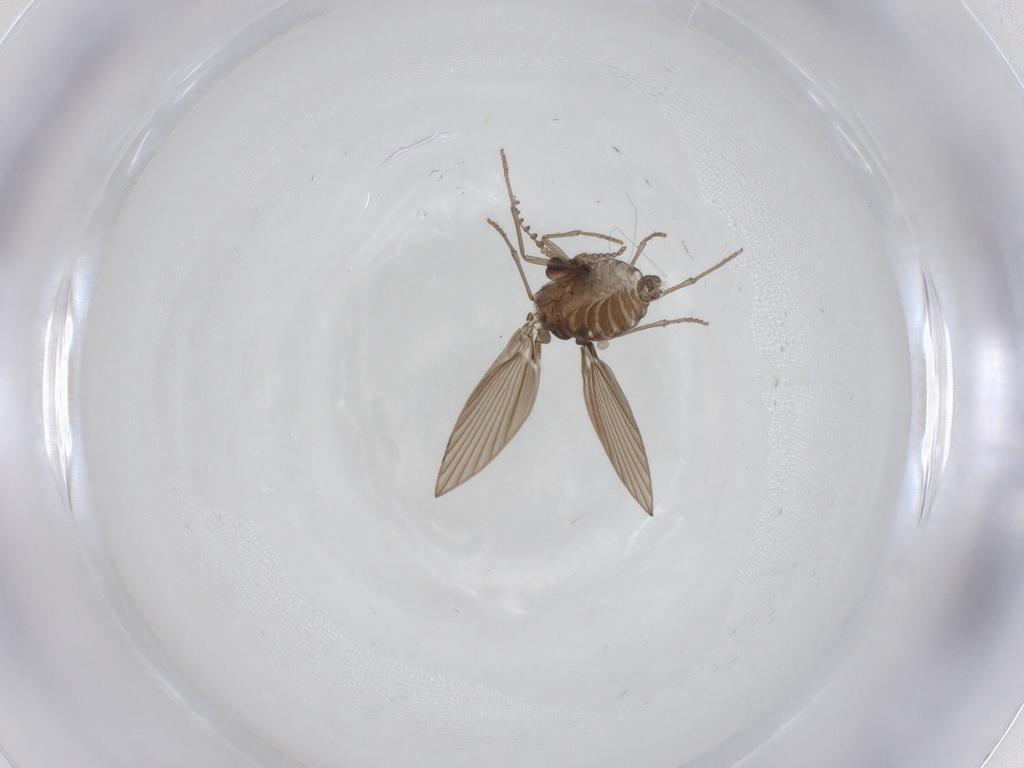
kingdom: Animalia
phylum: Arthropoda
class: Insecta
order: Diptera
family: Psychodidae
